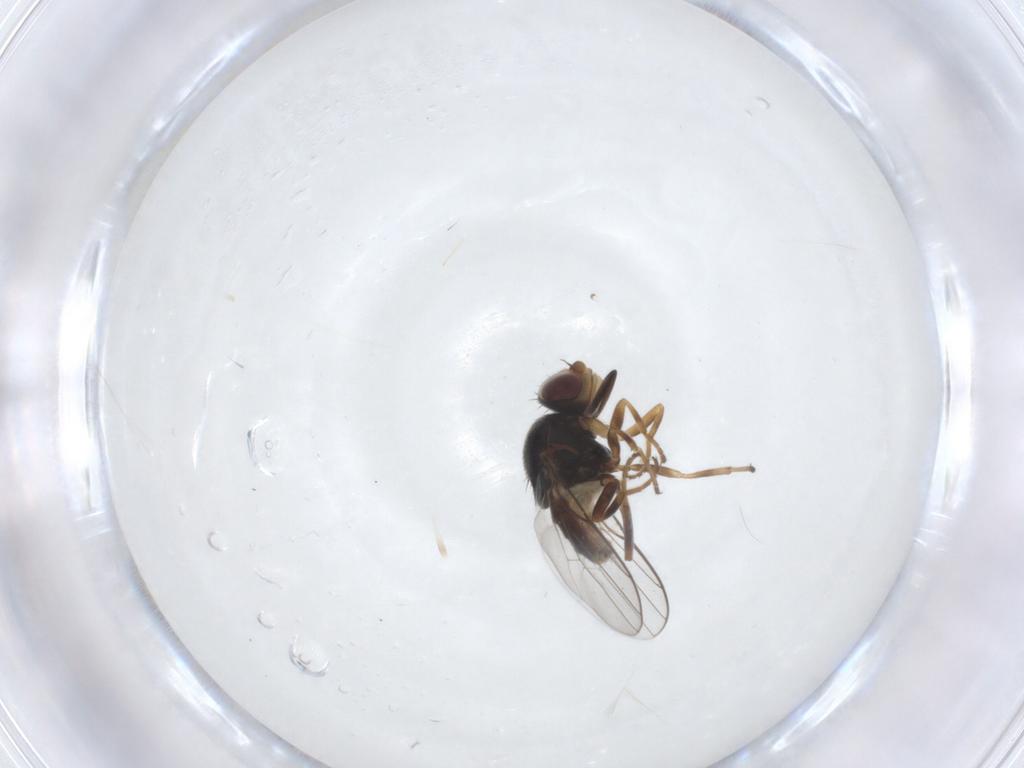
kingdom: Animalia
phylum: Arthropoda
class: Insecta
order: Diptera
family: Chloropidae
